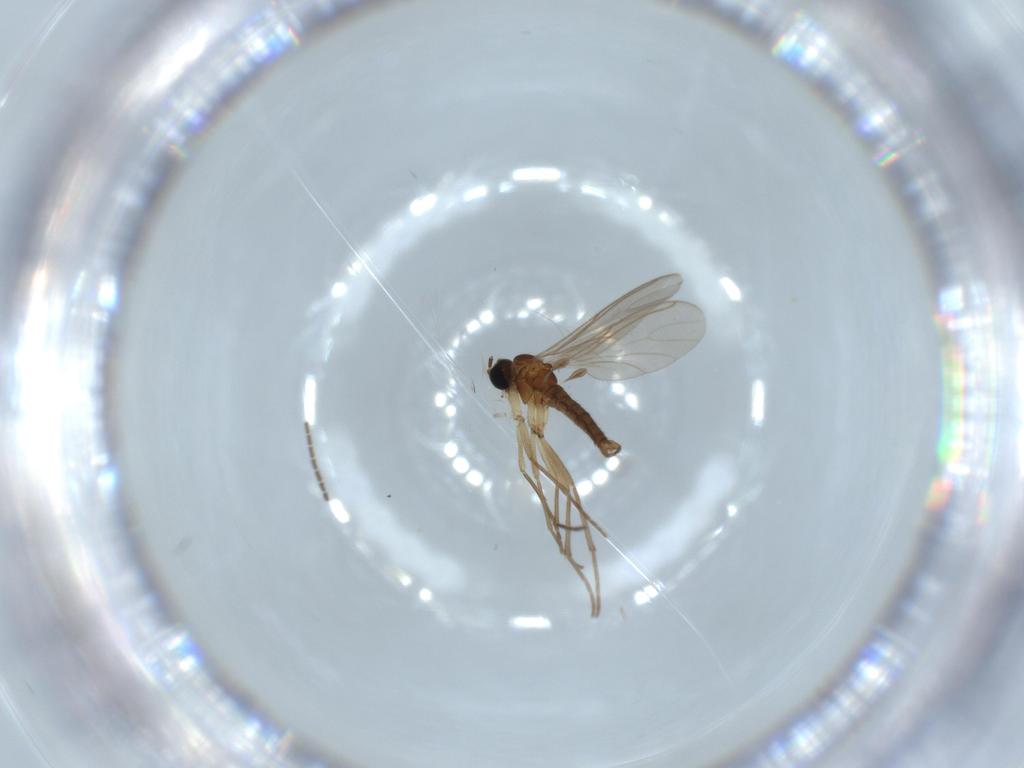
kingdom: Animalia
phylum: Arthropoda
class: Insecta
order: Diptera
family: Sciaridae
